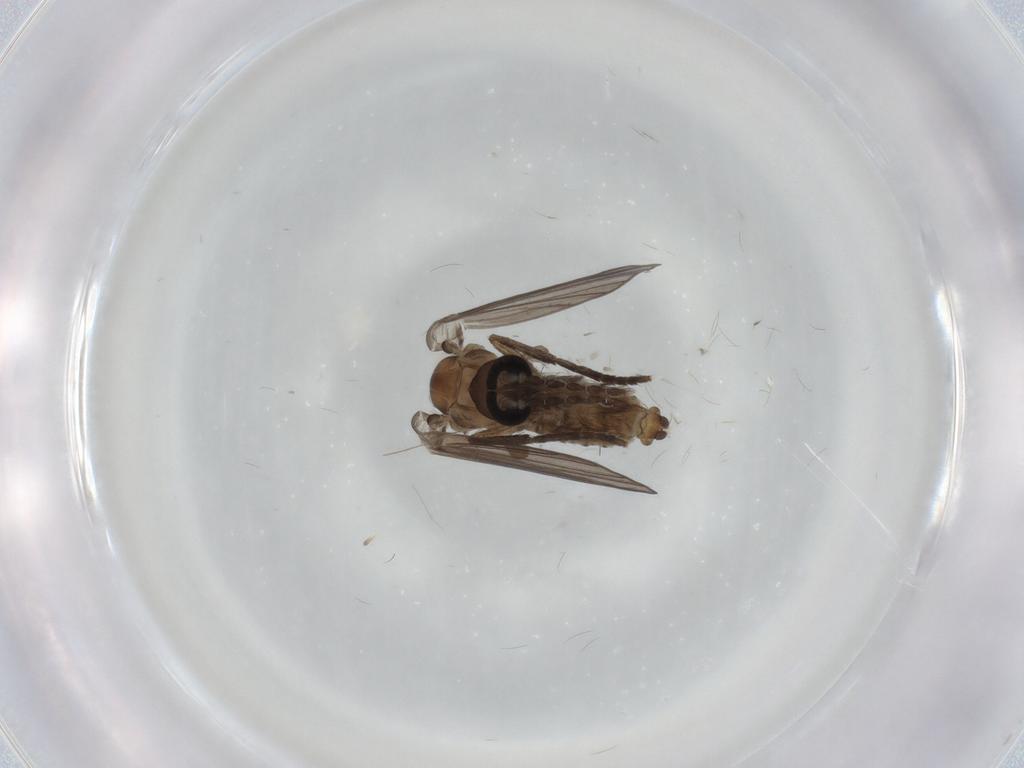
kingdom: Animalia
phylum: Arthropoda
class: Insecta
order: Diptera
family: Psychodidae
